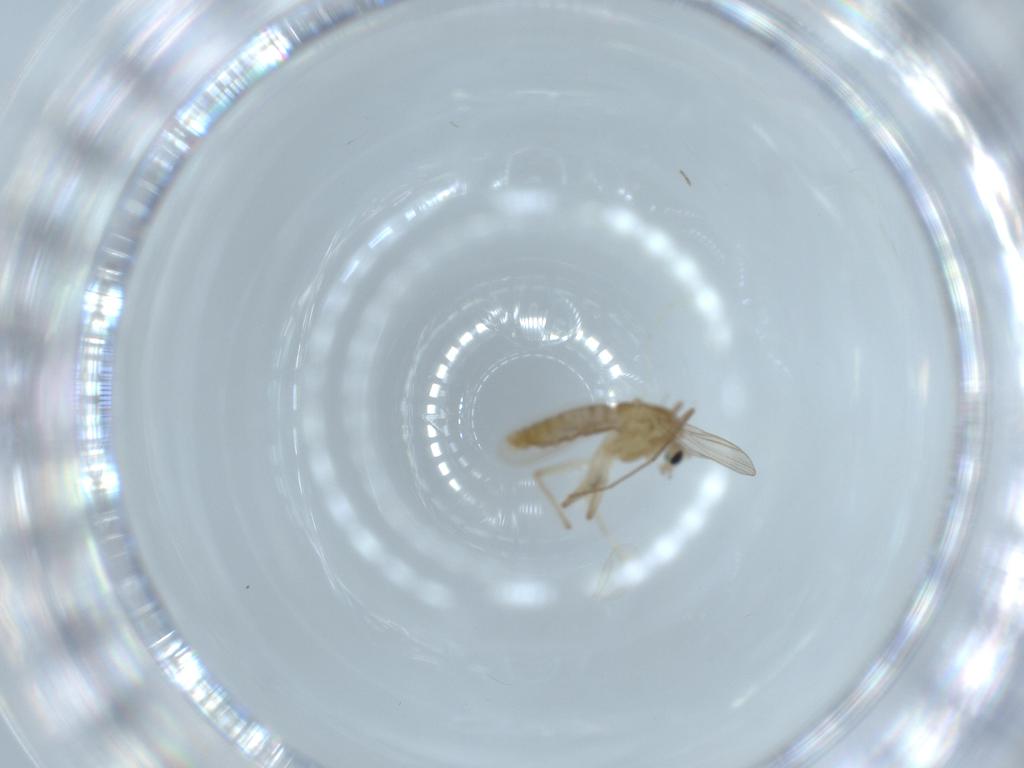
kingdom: Animalia
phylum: Arthropoda
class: Insecta
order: Diptera
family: Chironomidae
